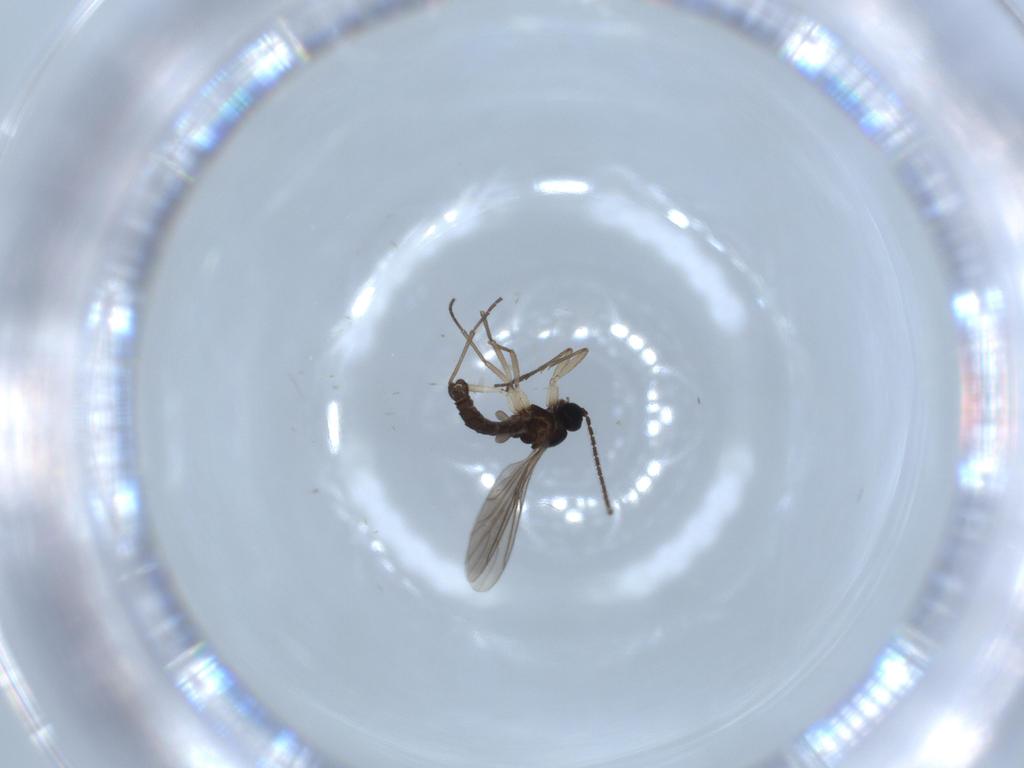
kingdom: Animalia
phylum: Arthropoda
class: Insecta
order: Diptera
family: Sciaridae
